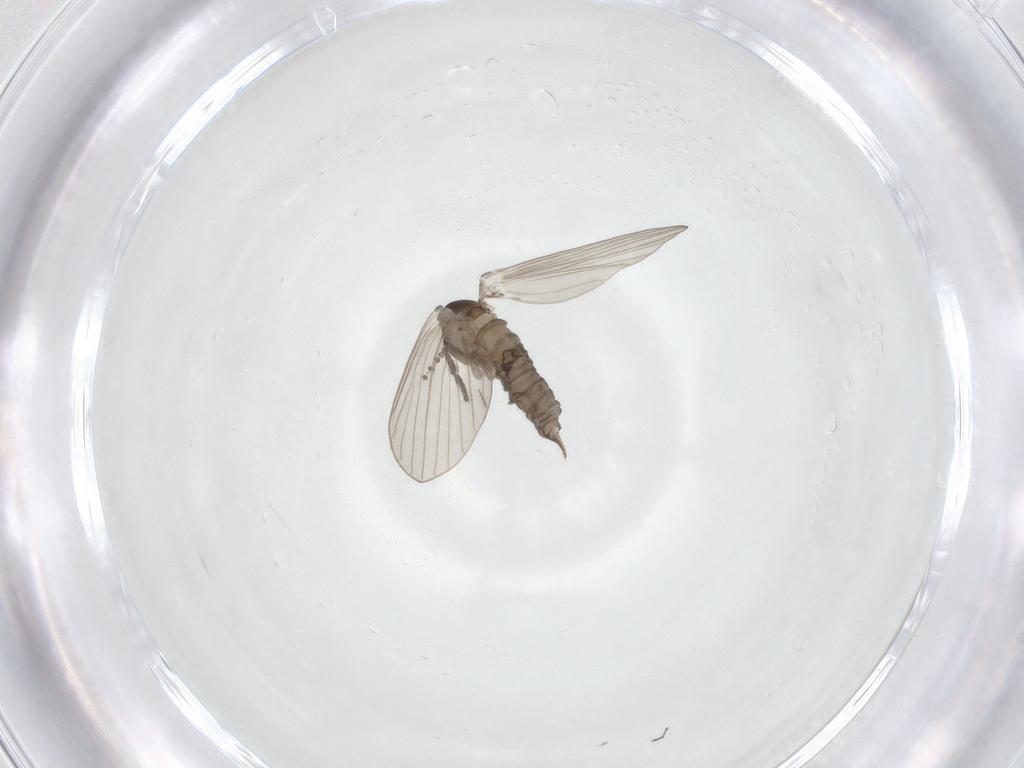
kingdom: Animalia
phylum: Arthropoda
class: Insecta
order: Diptera
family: Psychodidae
